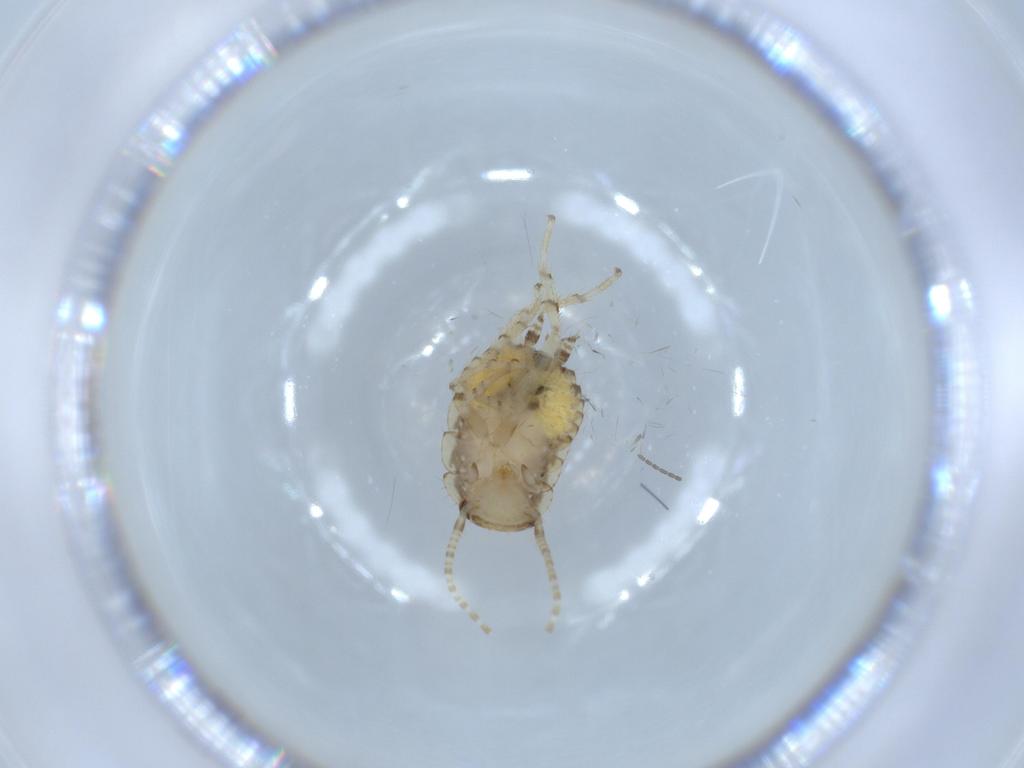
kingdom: Animalia
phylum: Arthropoda
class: Insecta
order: Blattodea
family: Ectobiidae
